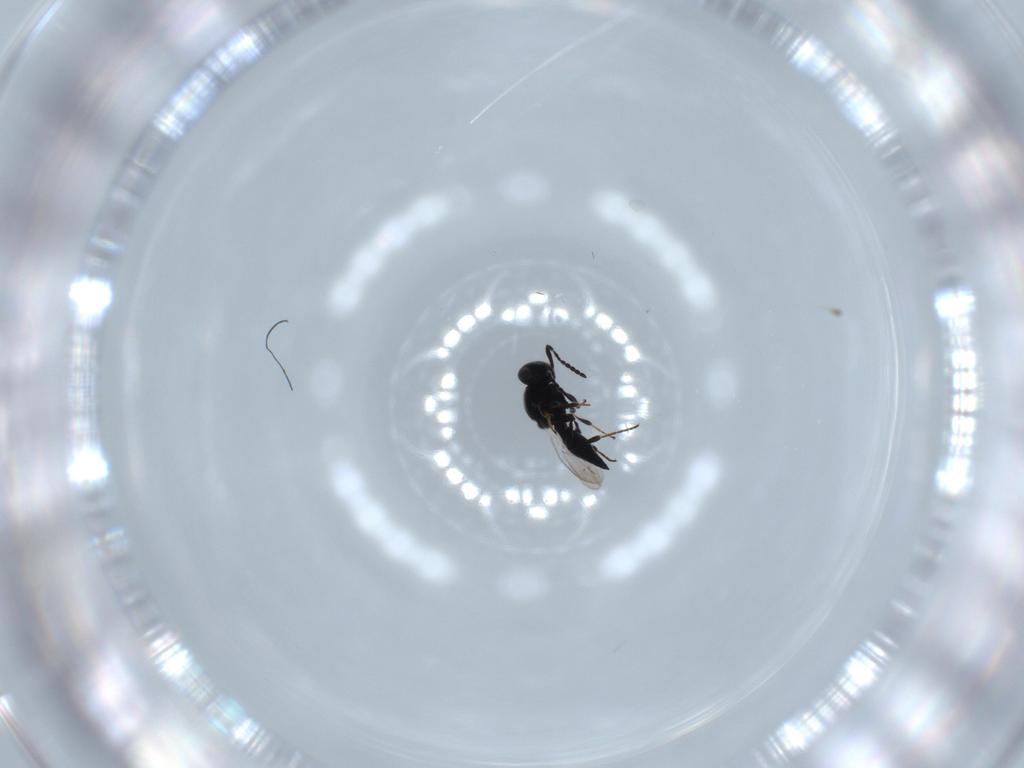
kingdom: Animalia
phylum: Arthropoda
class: Insecta
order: Diptera
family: Mythicomyiidae
